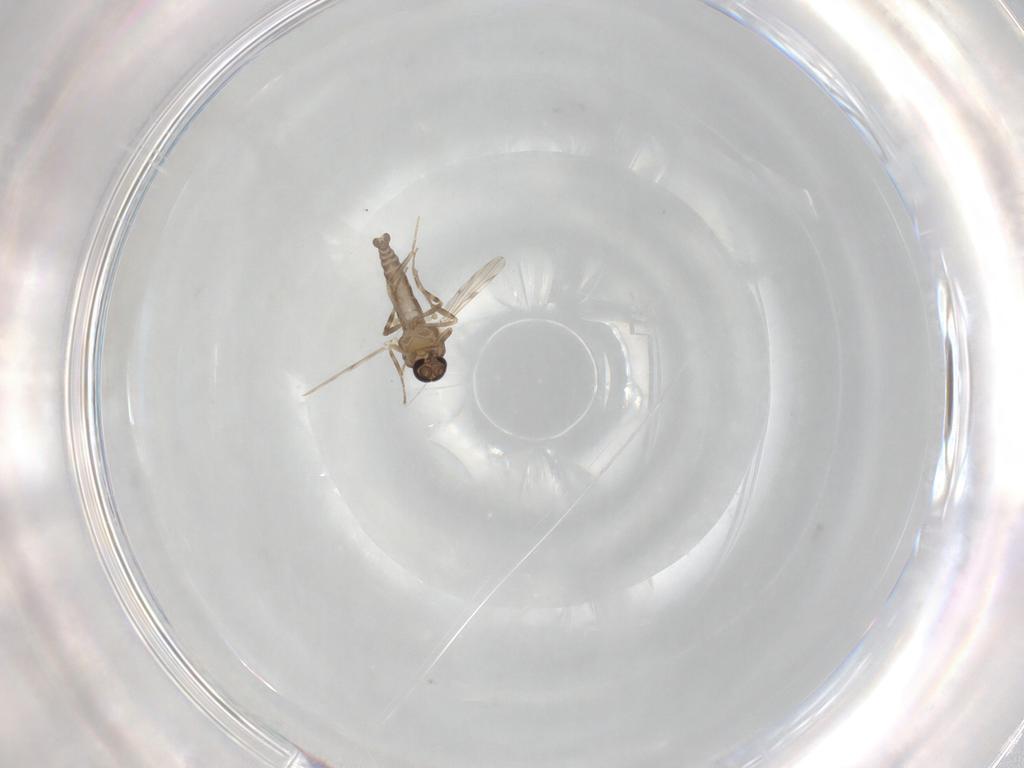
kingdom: Animalia
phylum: Arthropoda
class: Insecta
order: Diptera
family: Ceratopogonidae
